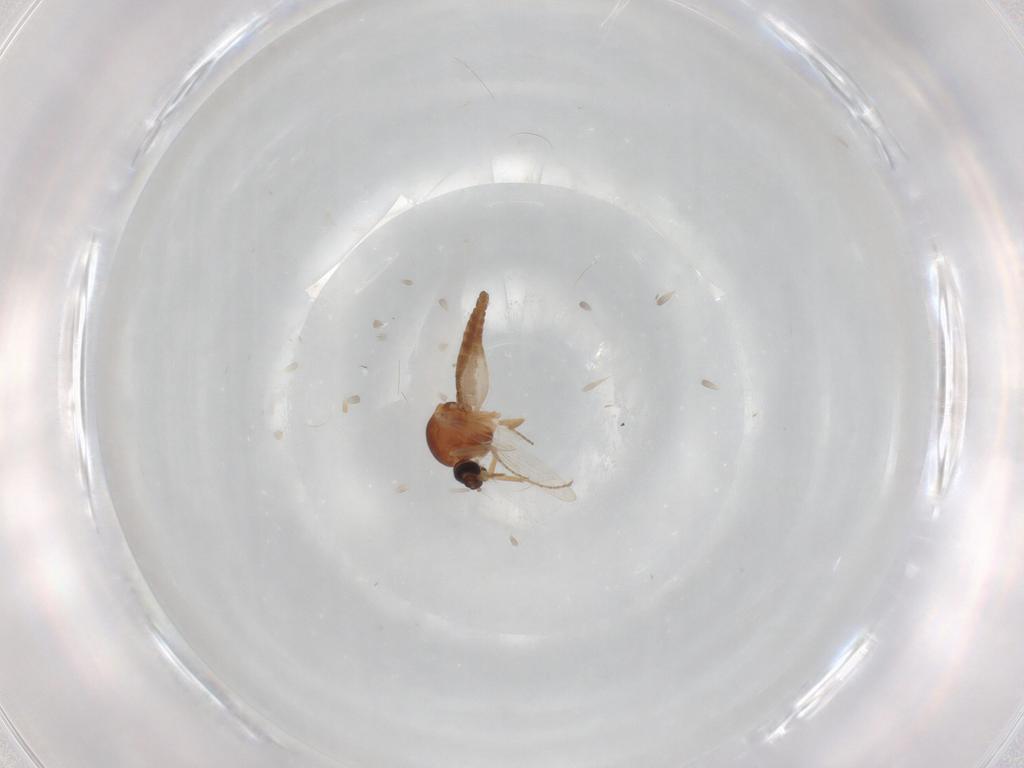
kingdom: Animalia
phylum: Arthropoda
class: Insecta
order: Diptera
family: Ceratopogonidae
